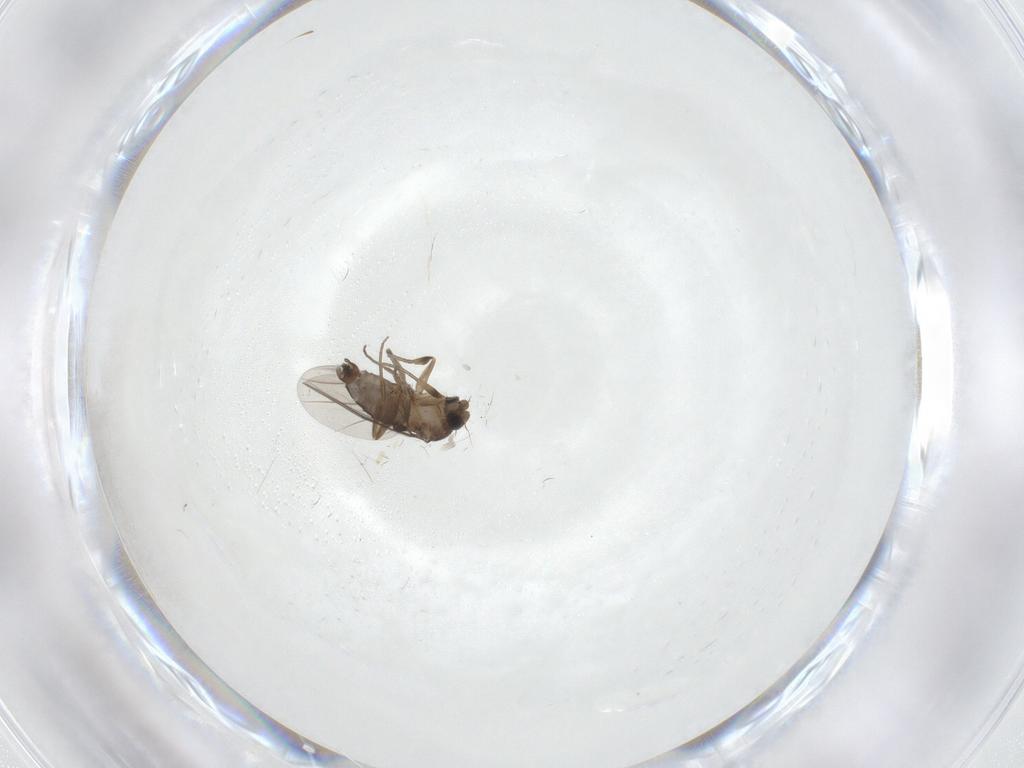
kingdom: Animalia
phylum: Arthropoda
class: Insecta
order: Diptera
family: Phoridae
